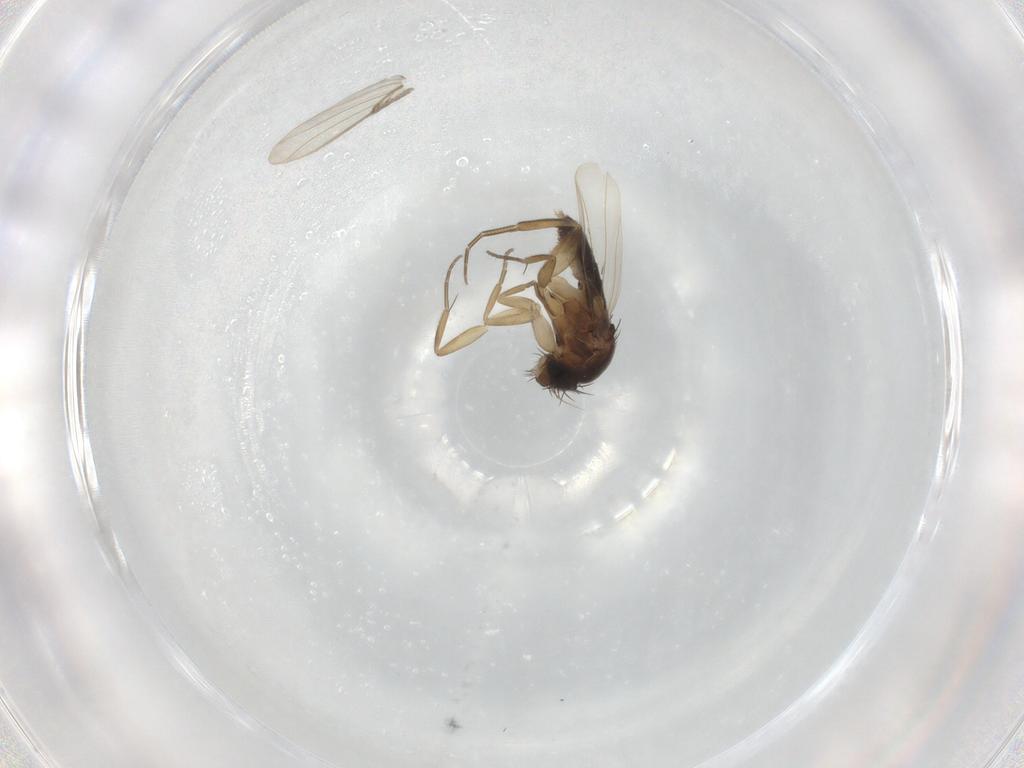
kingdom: Animalia
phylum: Arthropoda
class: Insecta
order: Diptera
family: Phoridae
